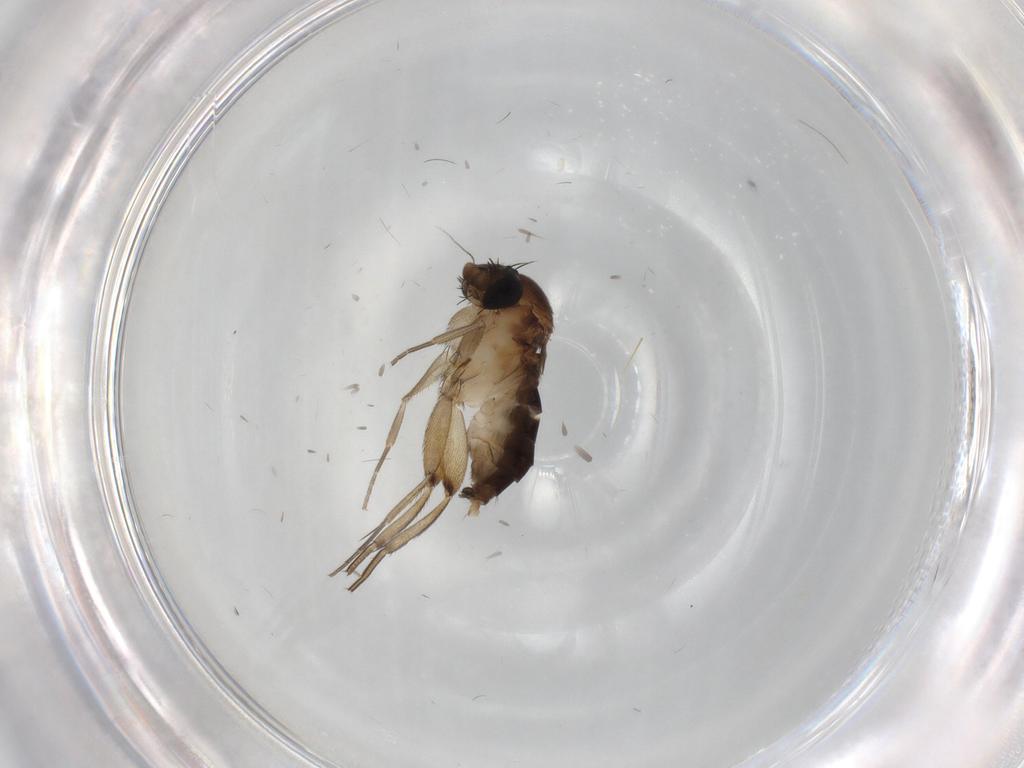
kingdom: Animalia
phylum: Arthropoda
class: Insecta
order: Diptera
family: Phoridae
